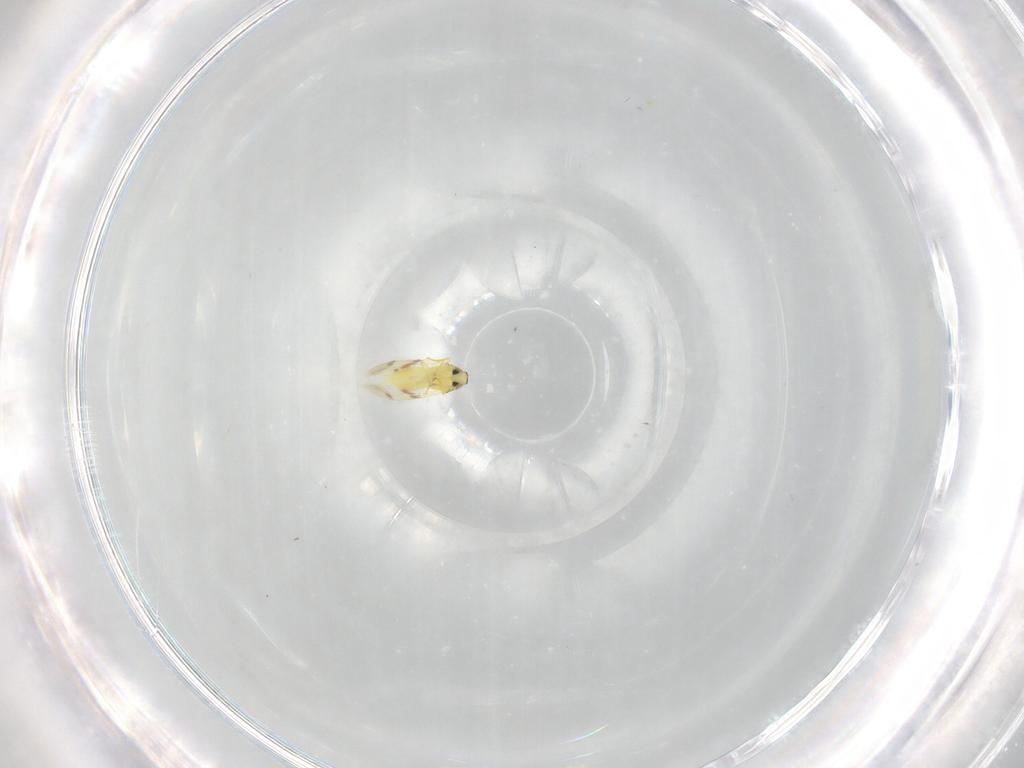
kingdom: Animalia
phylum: Arthropoda
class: Insecta
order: Hemiptera
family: Aleyrodidae
